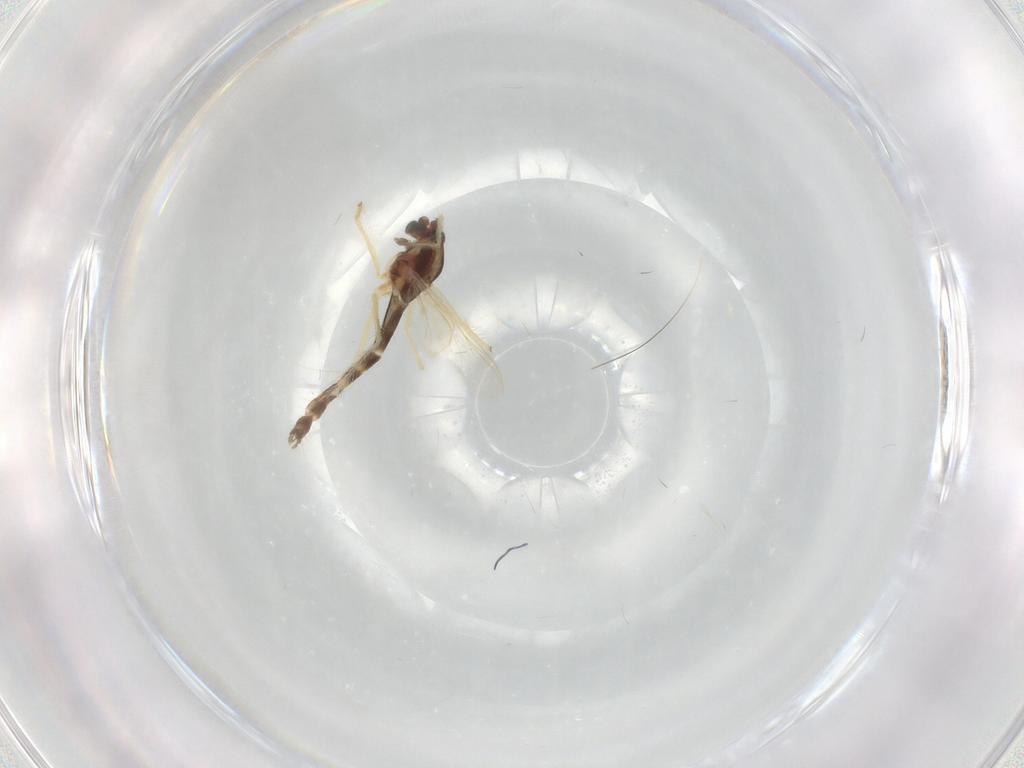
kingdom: Animalia
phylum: Arthropoda
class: Insecta
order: Diptera
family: Chironomidae
